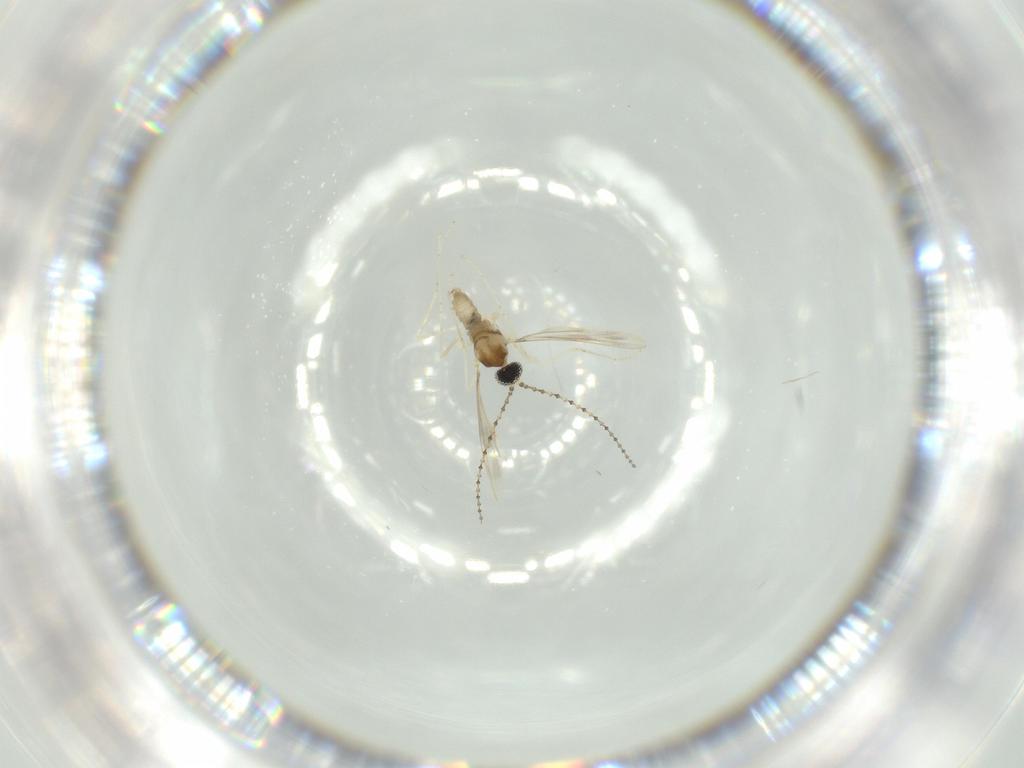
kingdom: Animalia
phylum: Arthropoda
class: Insecta
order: Diptera
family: Cecidomyiidae
